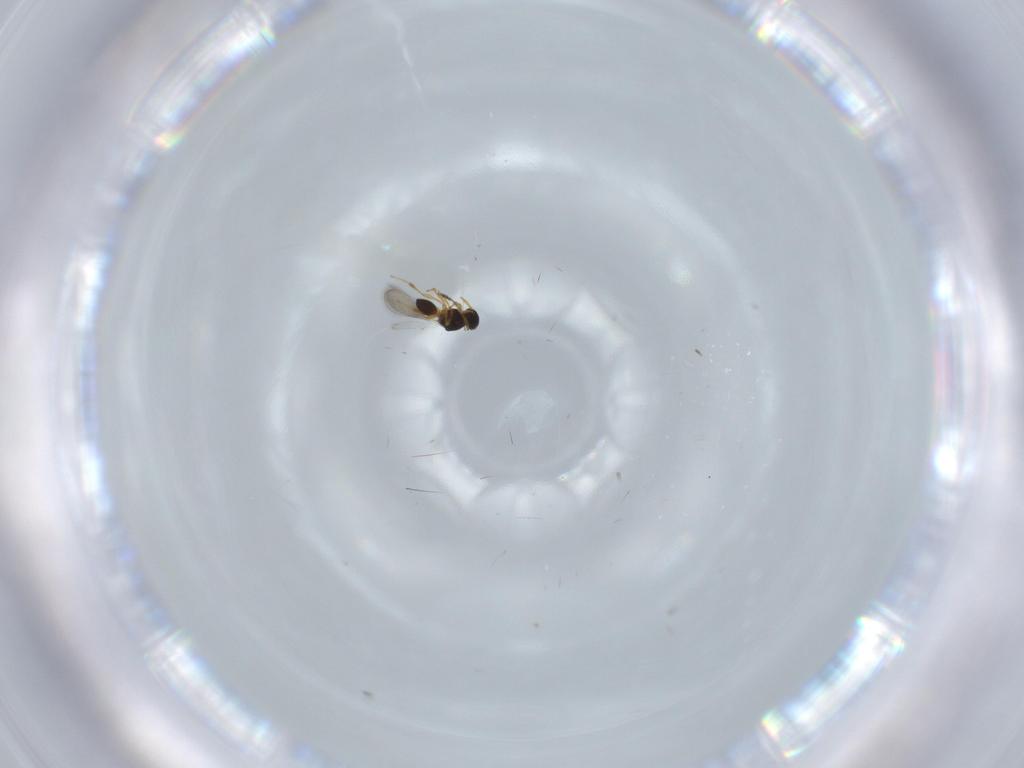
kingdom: Animalia
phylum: Arthropoda
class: Insecta
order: Hymenoptera
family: Platygastridae
